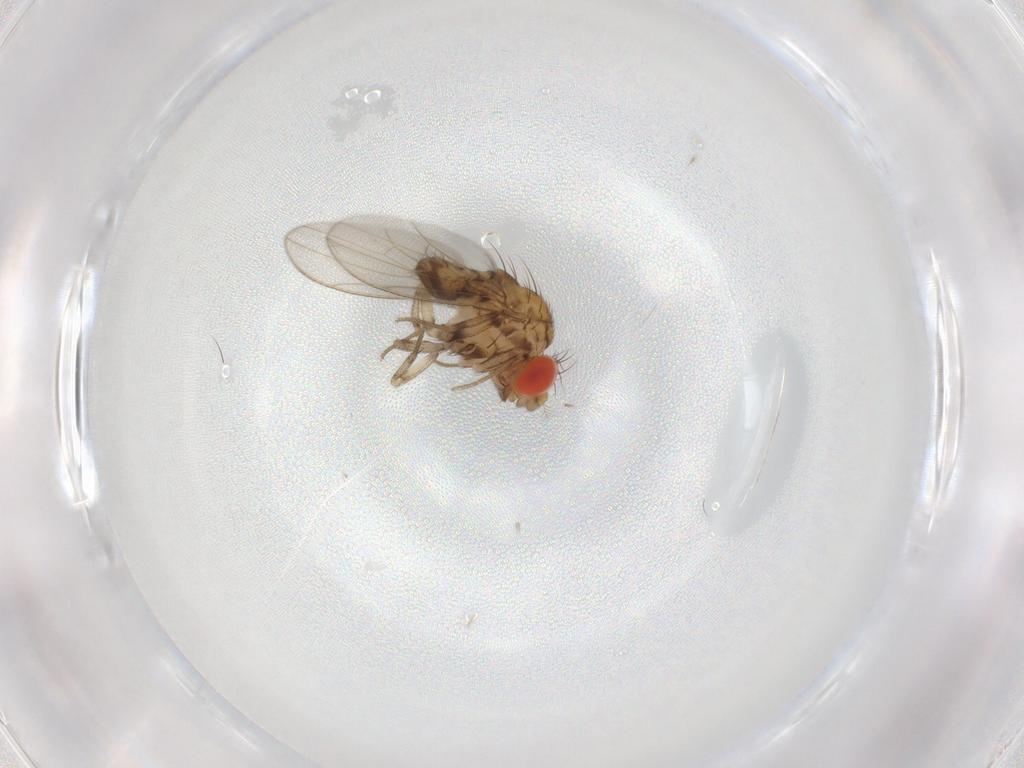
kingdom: Animalia
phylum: Arthropoda
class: Insecta
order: Diptera
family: Drosophilidae
